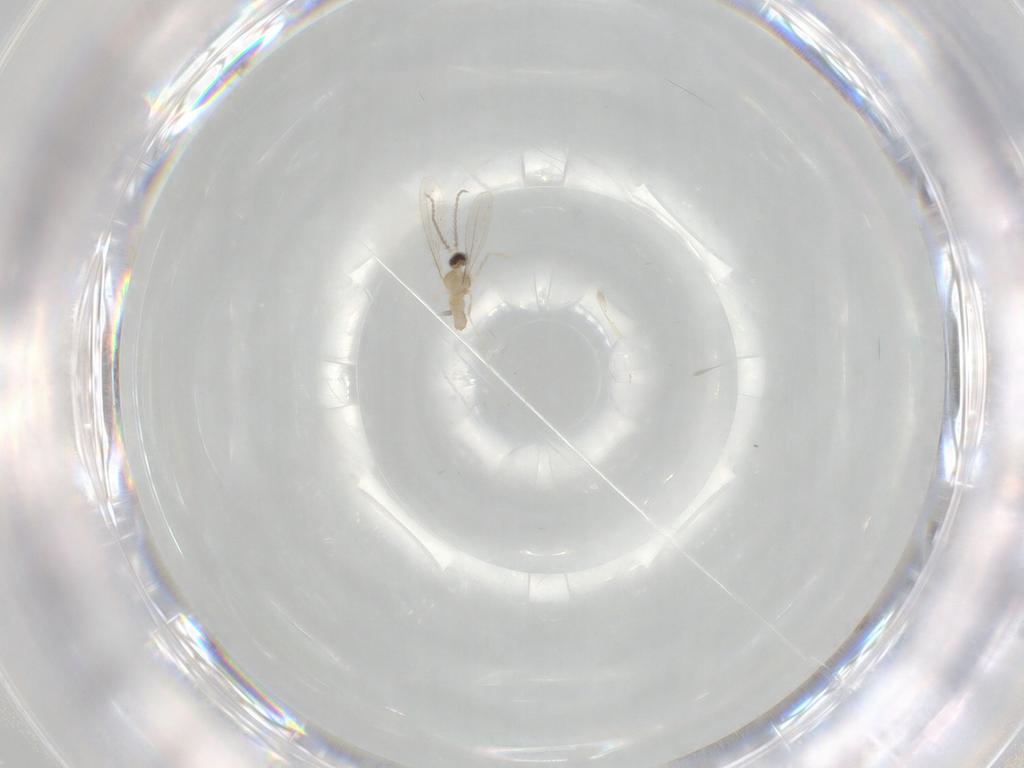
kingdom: Animalia
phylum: Arthropoda
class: Insecta
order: Diptera
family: Cecidomyiidae
